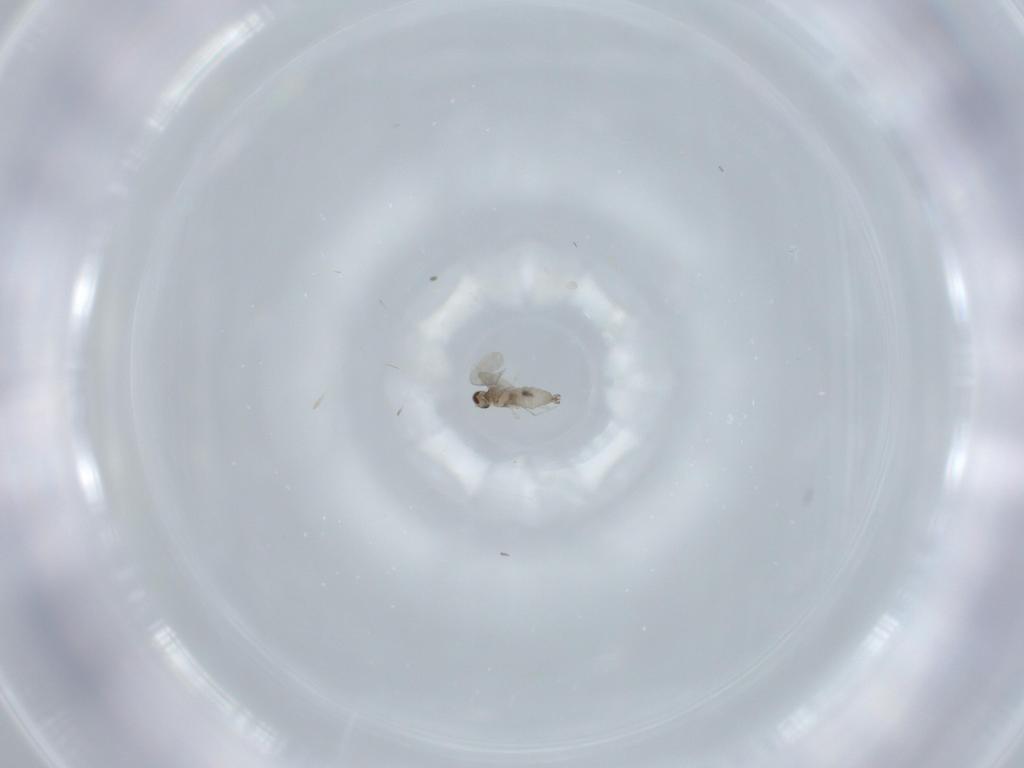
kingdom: Animalia
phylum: Arthropoda
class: Insecta
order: Diptera
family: Cecidomyiidae
